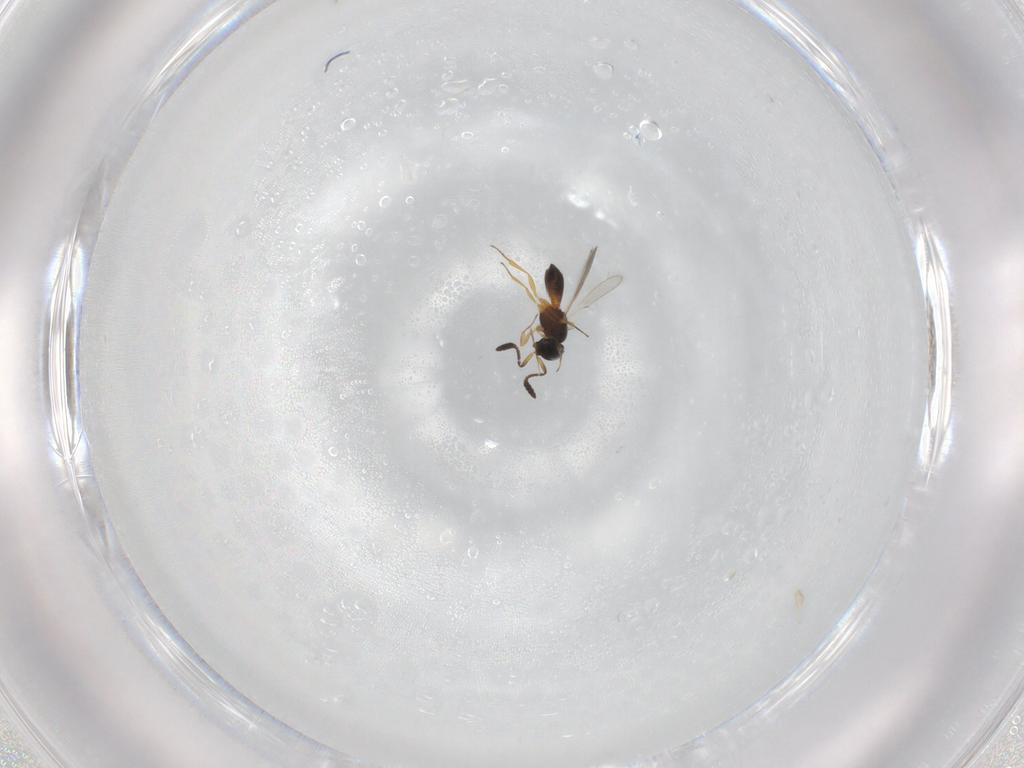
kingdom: Animalia
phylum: Arthropoda
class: Insecta
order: Hymenoptera
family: Scelionidae
